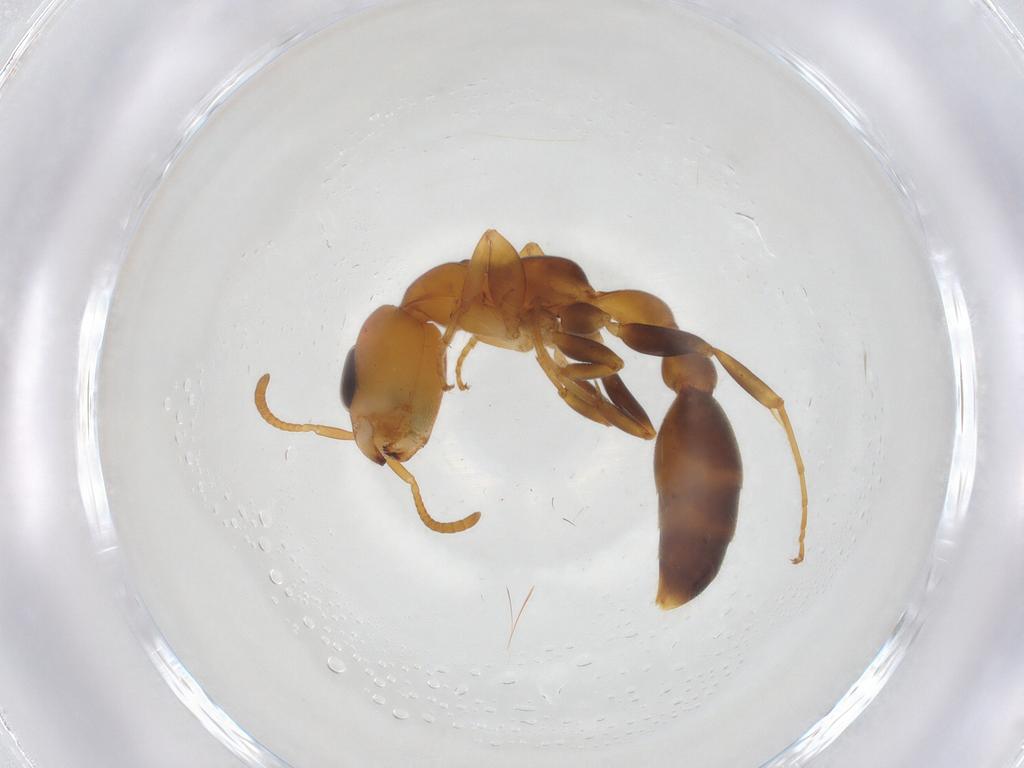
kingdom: Animalia
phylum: Arthropoda
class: Insecta
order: Hymenoptera
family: Formicidae
